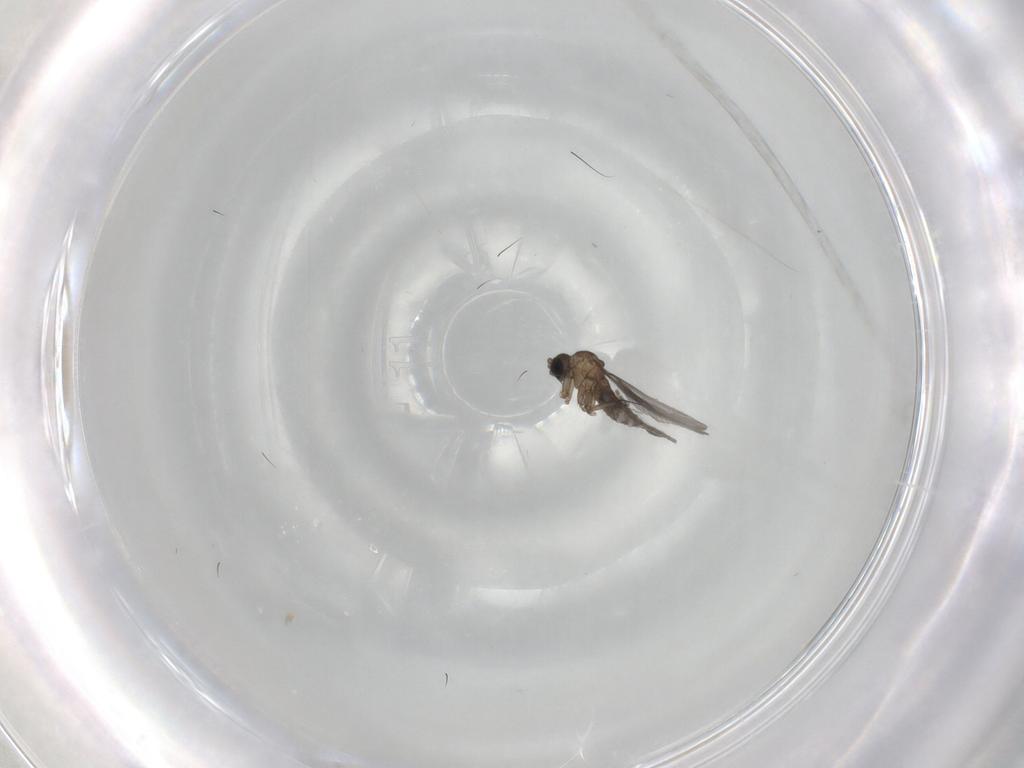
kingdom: Animalia
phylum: Arthropoda
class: Insecta
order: Diptera
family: Sciaridae
